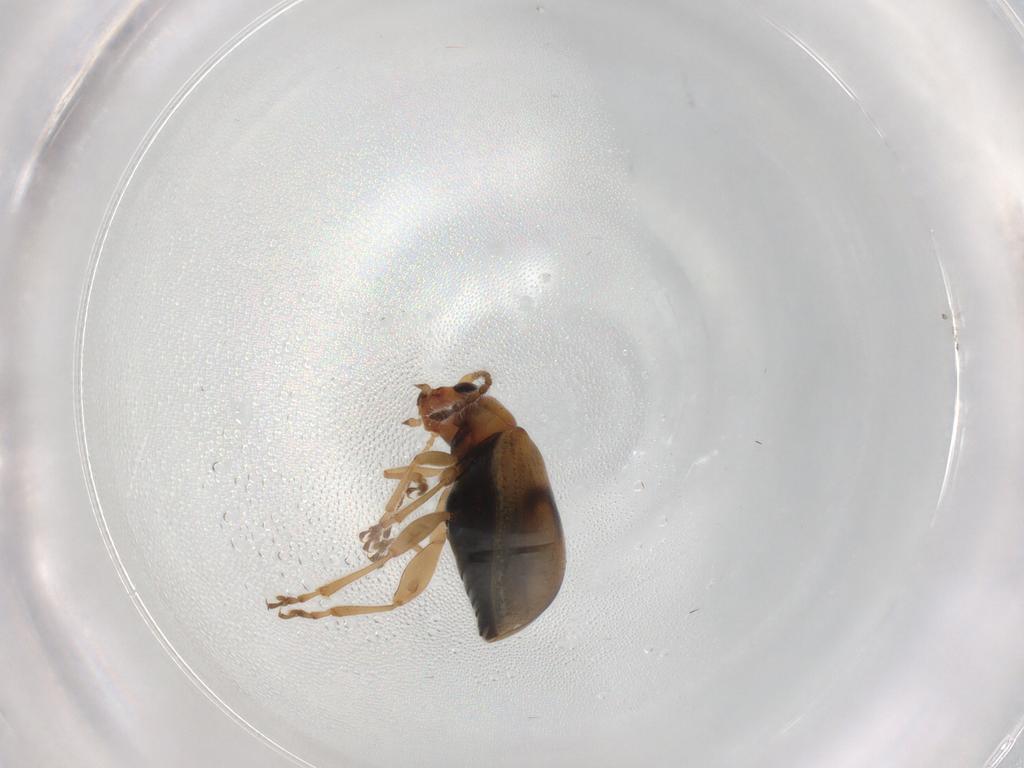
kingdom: Animalia
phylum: Arthropoda
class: Insecta
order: Coleoptera
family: Chrysomelidae
